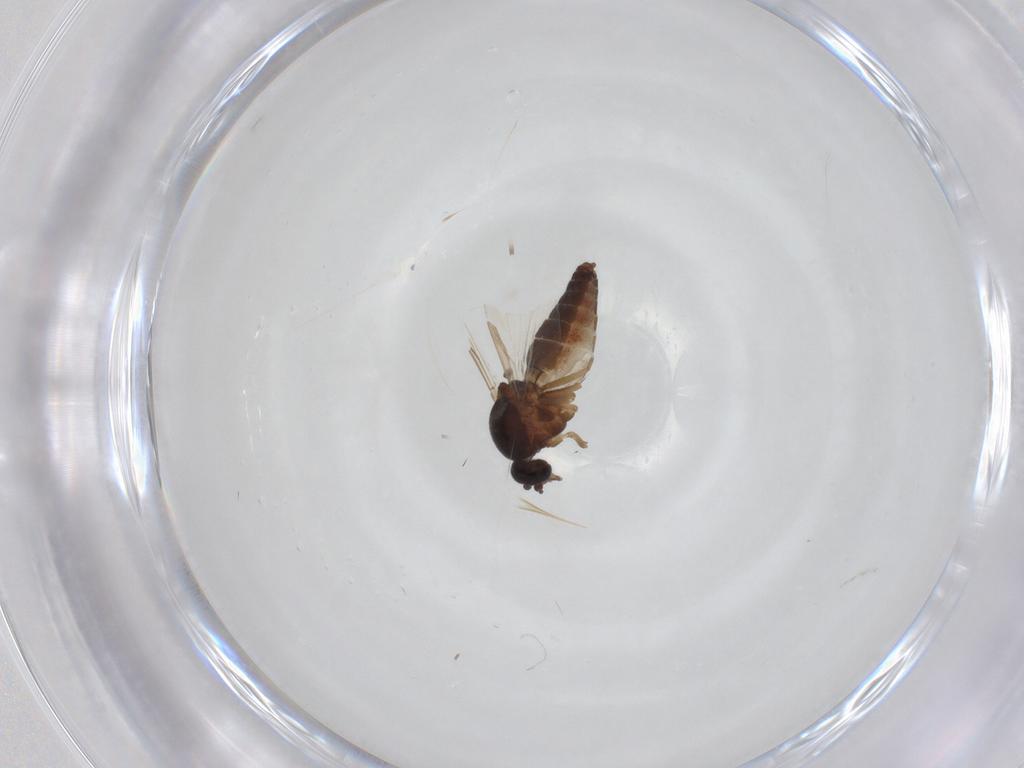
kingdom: Animalia
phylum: Arthropoda
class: Insecta
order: Diptera
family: Ceratopogonidae
